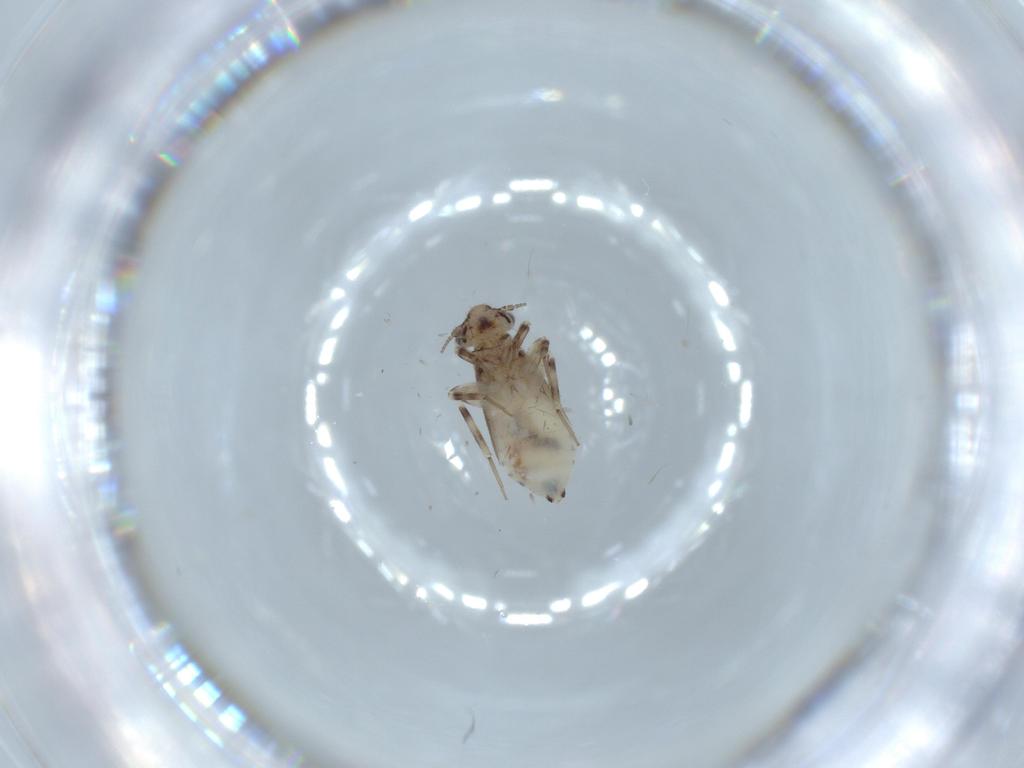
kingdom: Animalia
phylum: Arthropoda
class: Insecta
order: Psocodea
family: Lepidopsocidae
